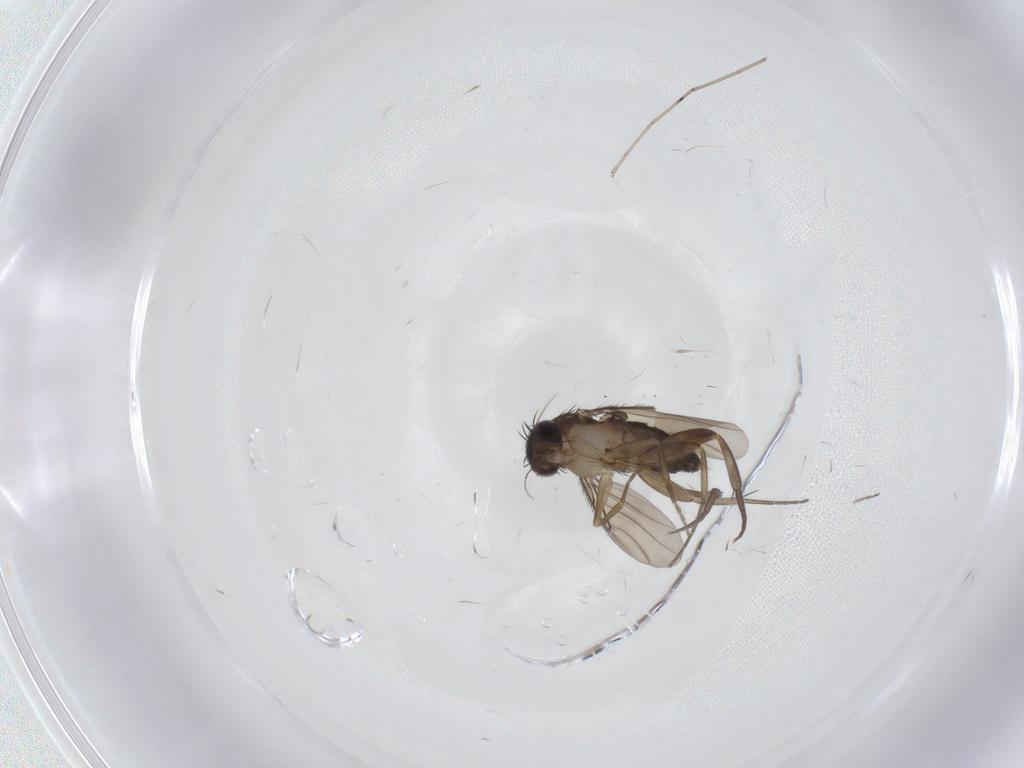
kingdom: Animalia
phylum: Arthropoda
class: Insecta
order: Diptera
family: Phoridae
